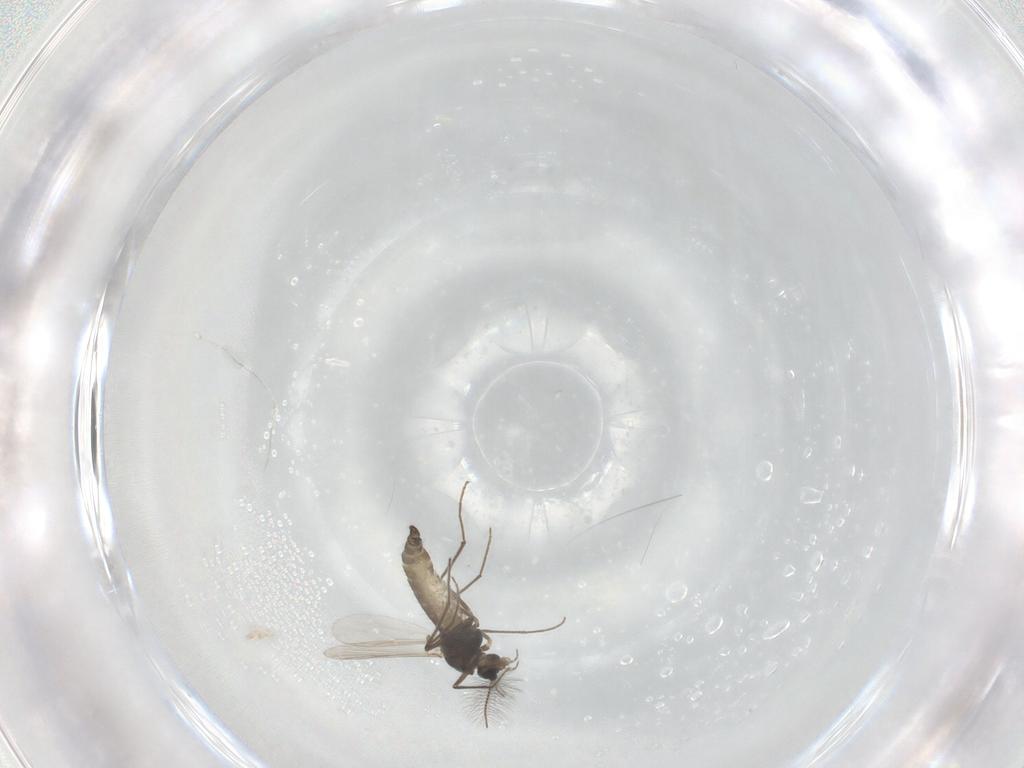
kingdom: Animalia
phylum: Arthropoda
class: Insecta
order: Diptera
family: Chironomidae
